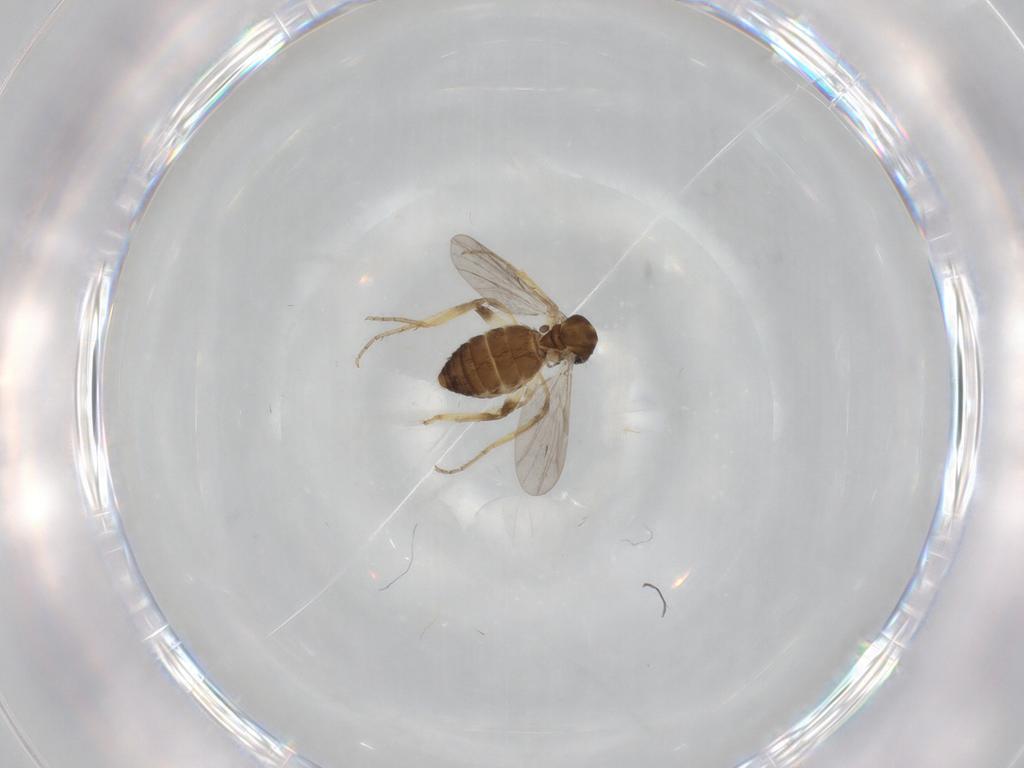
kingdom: Animalia
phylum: Arthropoda
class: Insecta
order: Diptera
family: Ceratopogonidae
